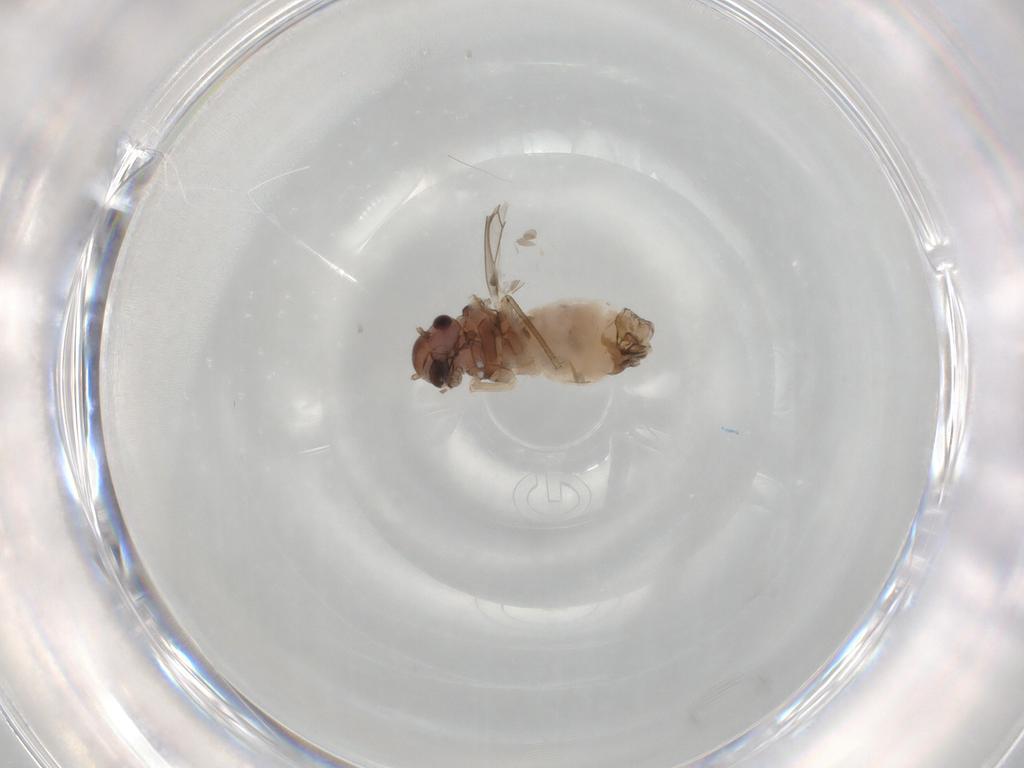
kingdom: Animalia
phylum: Arthropoda
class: Insecta
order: Psocodea
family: Peripsocidae
